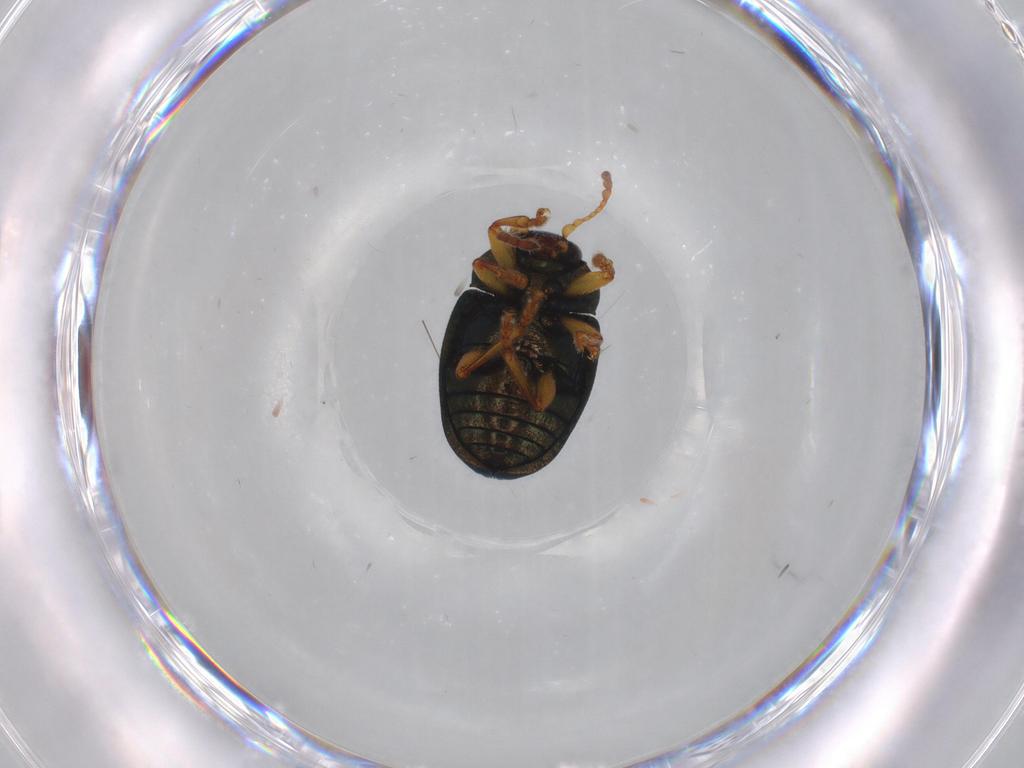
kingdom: Animalia
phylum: Arthropoda
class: Insecta
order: Coleoptera
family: Chrysomelidae
